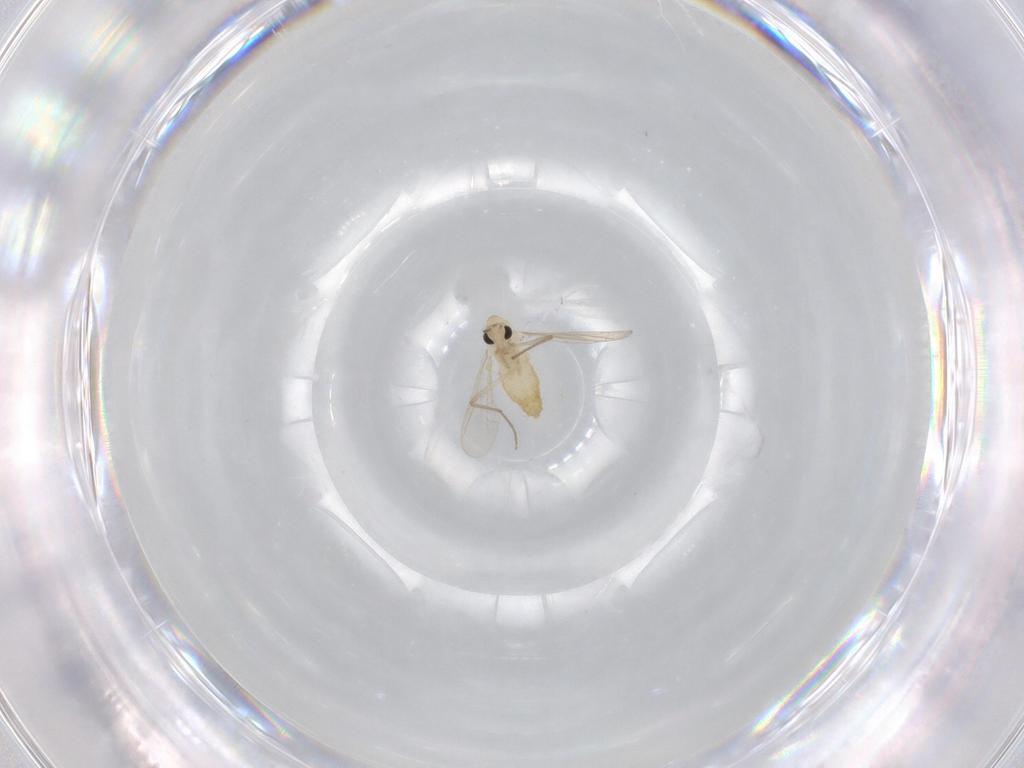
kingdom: Animalia
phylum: Arthropoda
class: Insecta
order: Diptera
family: Chironomidae
